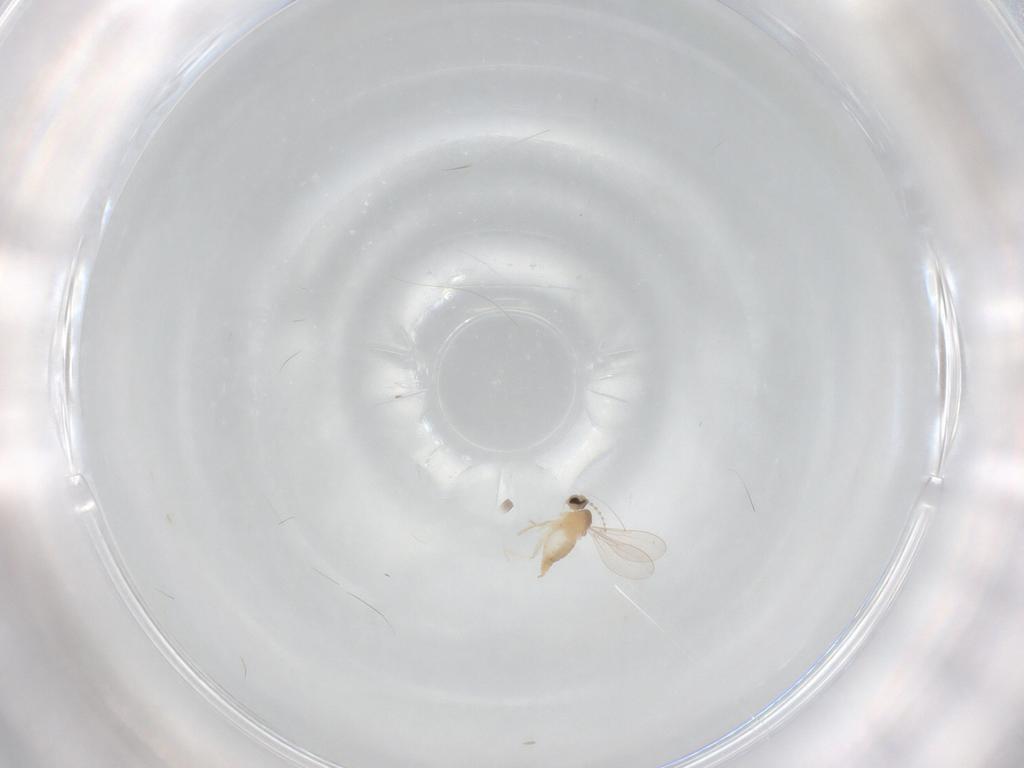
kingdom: Animalia
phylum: Arthropoda
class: Insecta
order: Diptera
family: Cecidomyiidae
